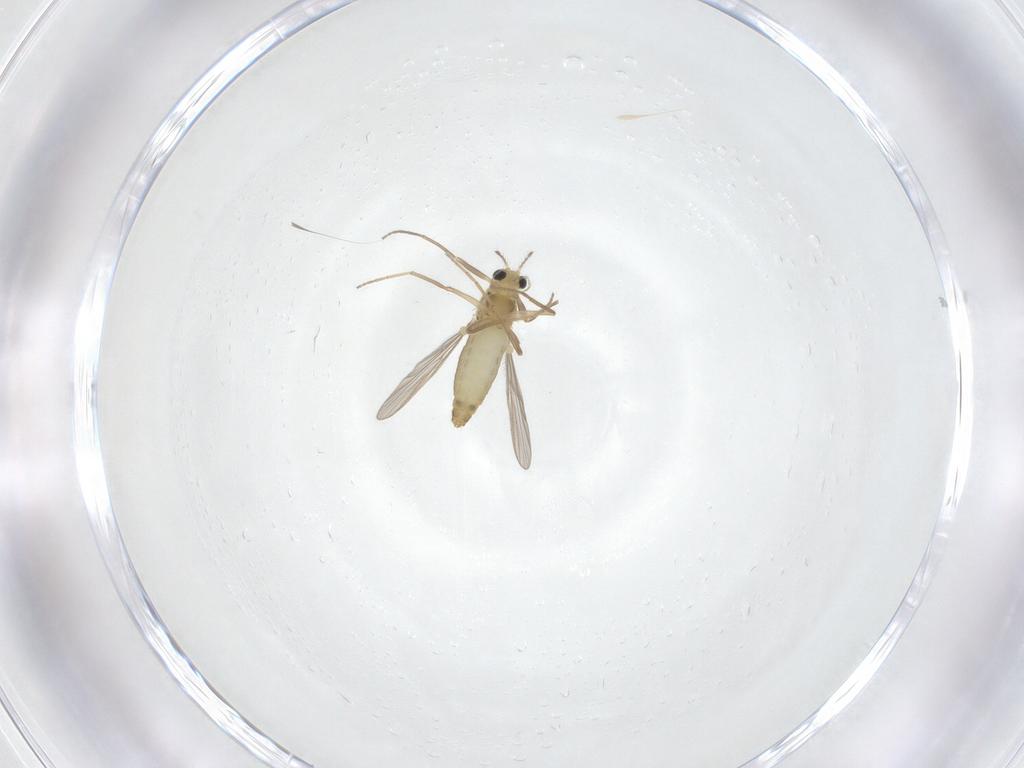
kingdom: Animalia
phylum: Arthropoda
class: Insecta
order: Diptera
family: Chironomidae
